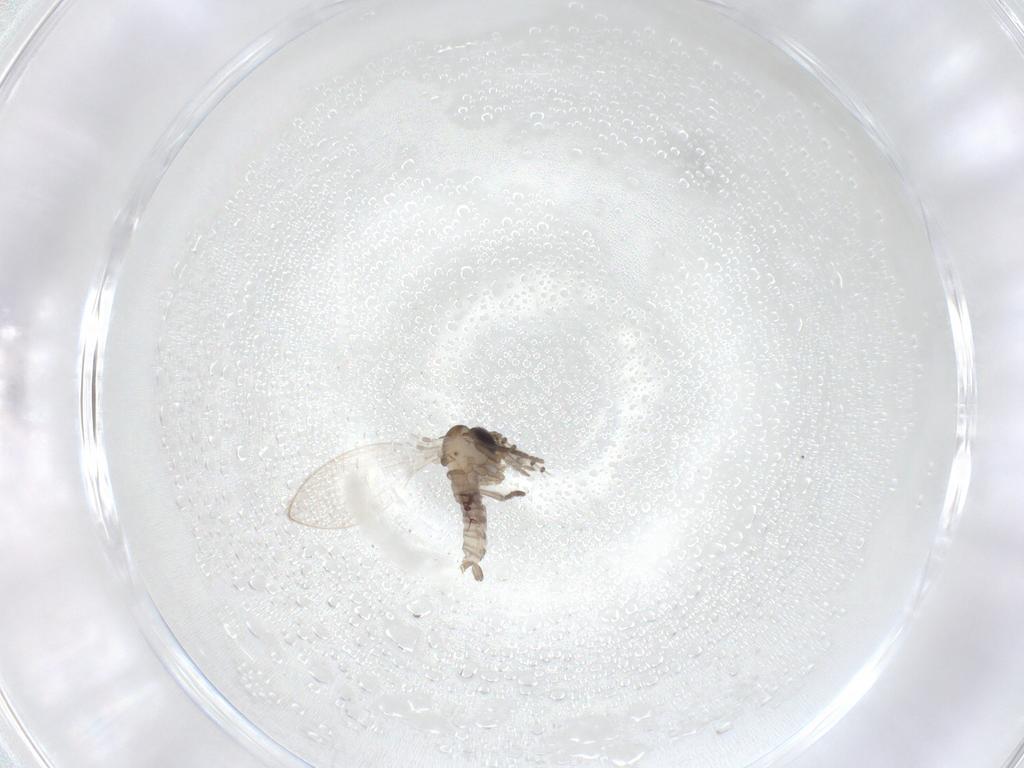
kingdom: Animalia
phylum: Arthropoda
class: Insecta
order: Diptera
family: Psychodidae
